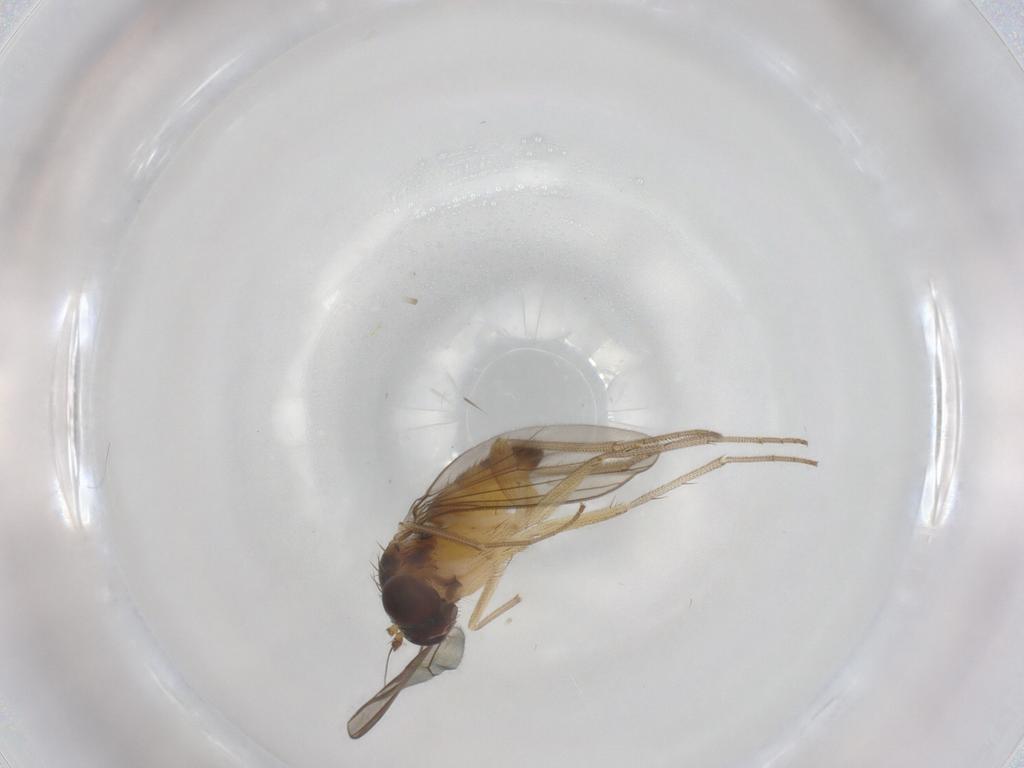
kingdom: Animalia
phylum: Arthropoda
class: Insecta
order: Diptera
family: Dolichopodidae
